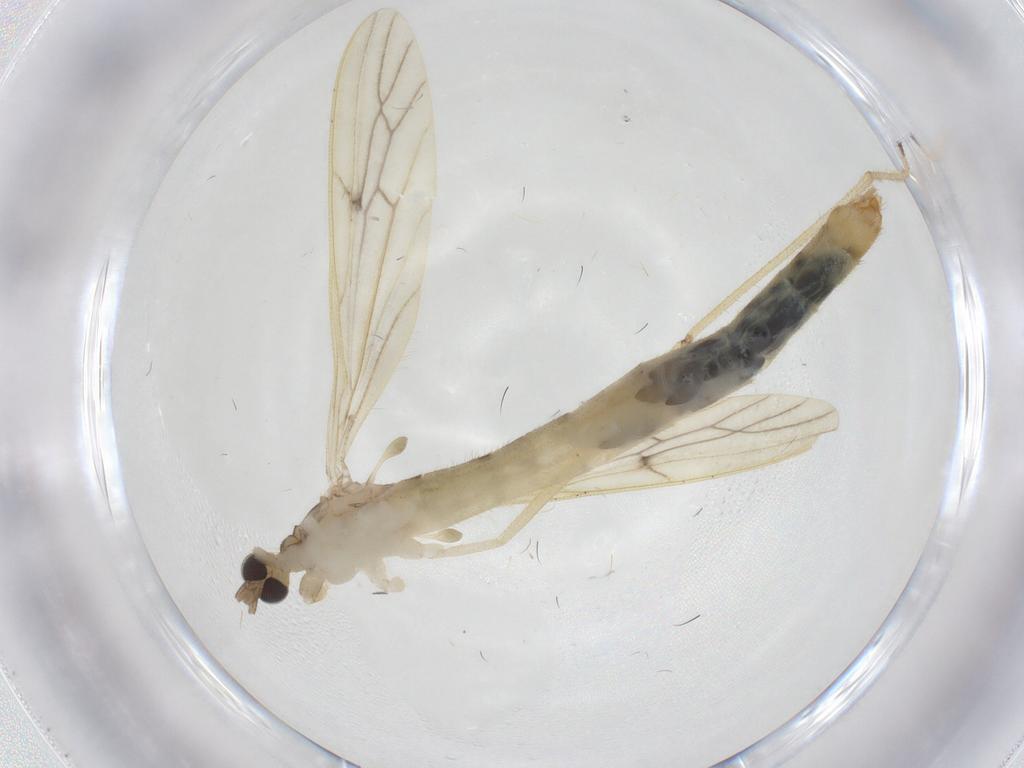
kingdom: Animalia
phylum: Arthropoda
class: Insecta
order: Diptera
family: Limoniidae
